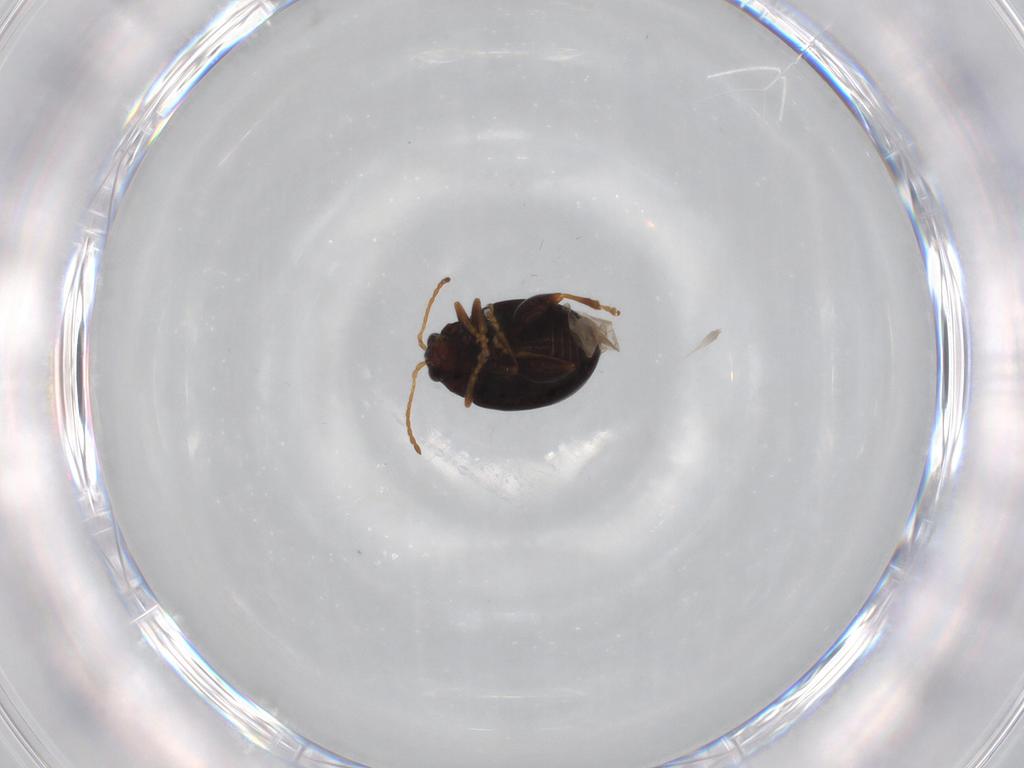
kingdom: Animalia
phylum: Arthropoda
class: Insecta
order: Coleoptera
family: Chrysomelidae
